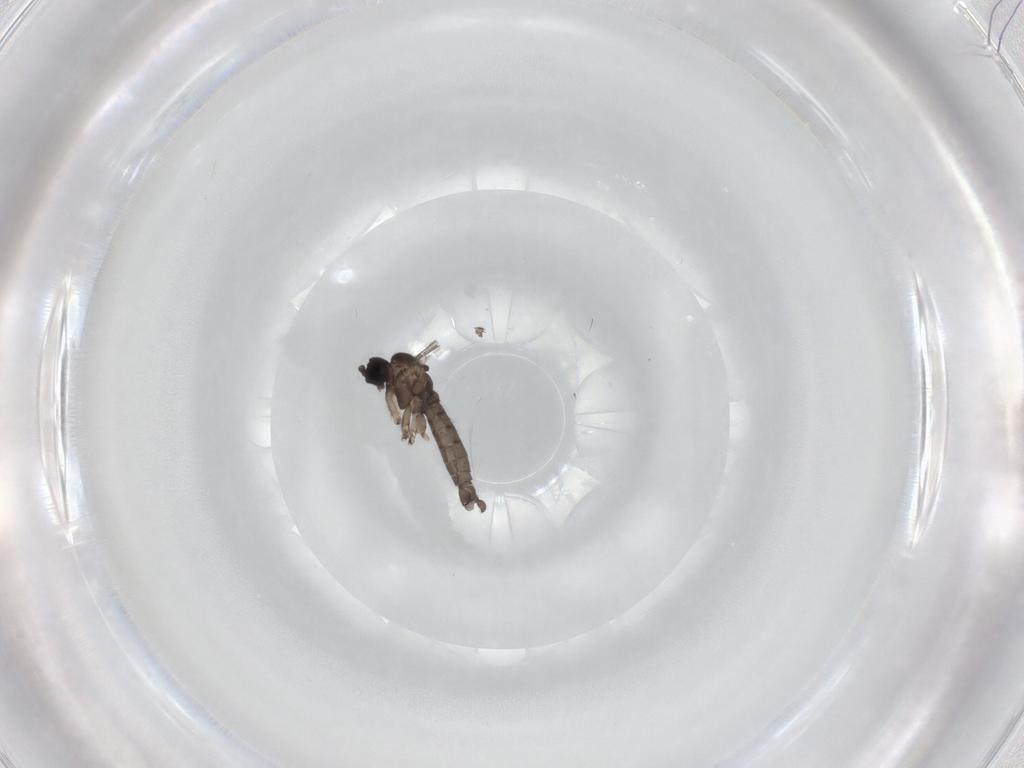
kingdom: Animalia
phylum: Arthropoda
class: Insecta
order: Diptera
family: Sciaridae
